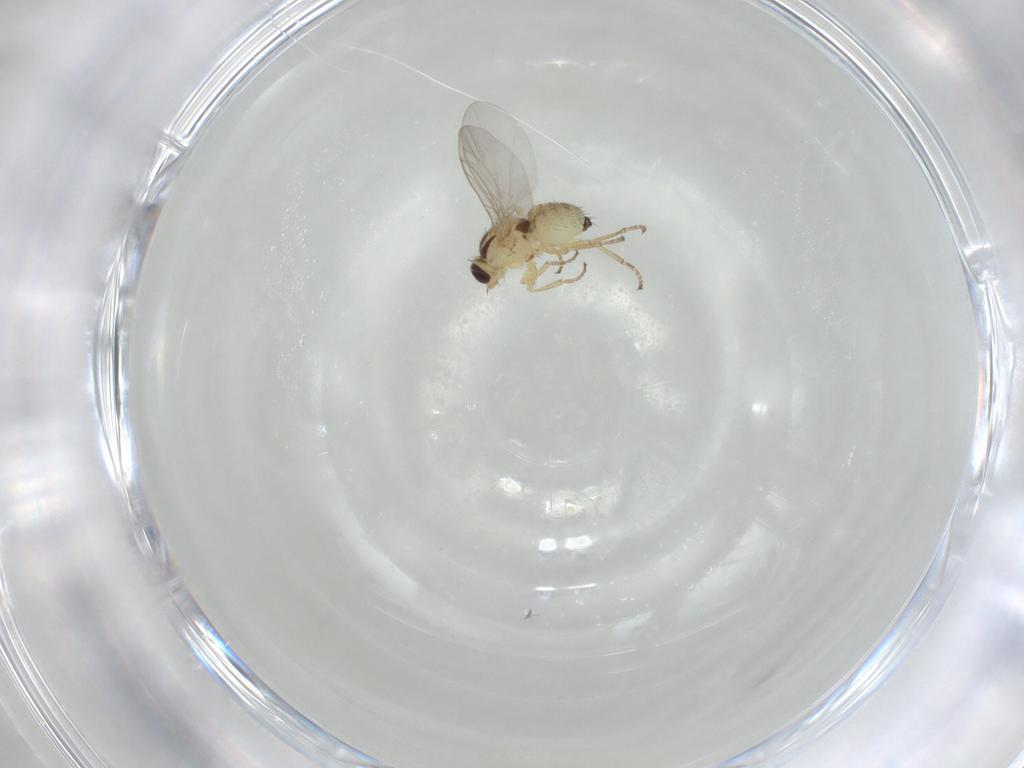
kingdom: Animalia
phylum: Arthropoda
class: Insecta
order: Diptera
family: Agromyzidae
